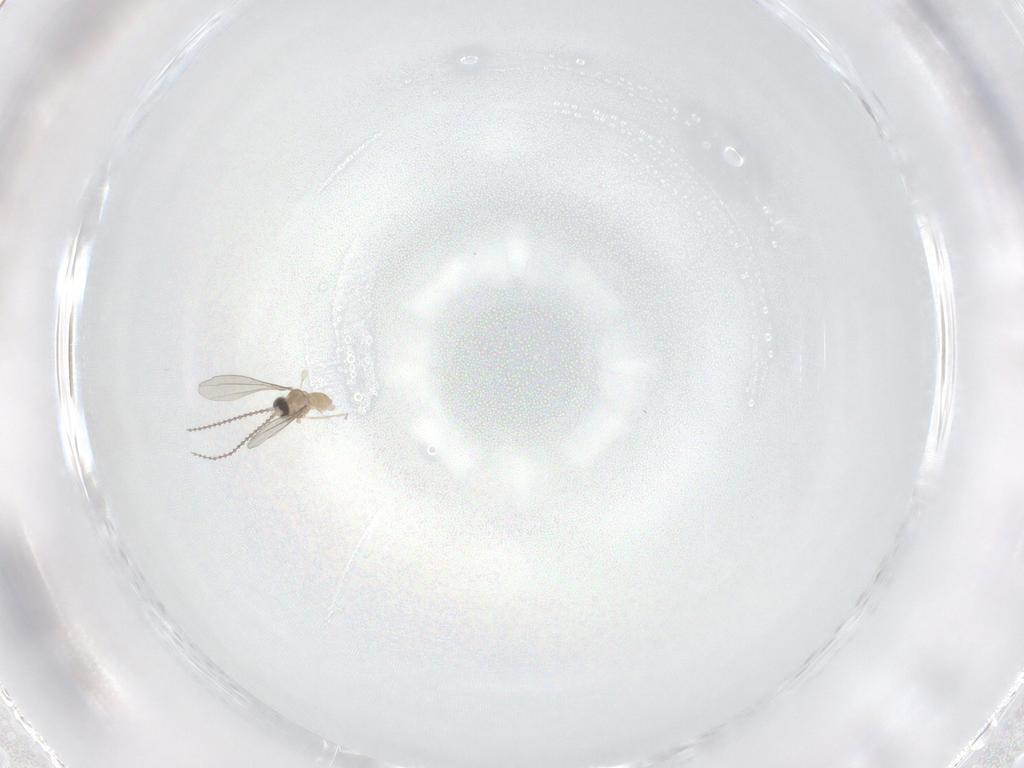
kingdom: Animalia
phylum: Arthropoda
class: Insecta
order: Diptera
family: Cecidomyiidae
